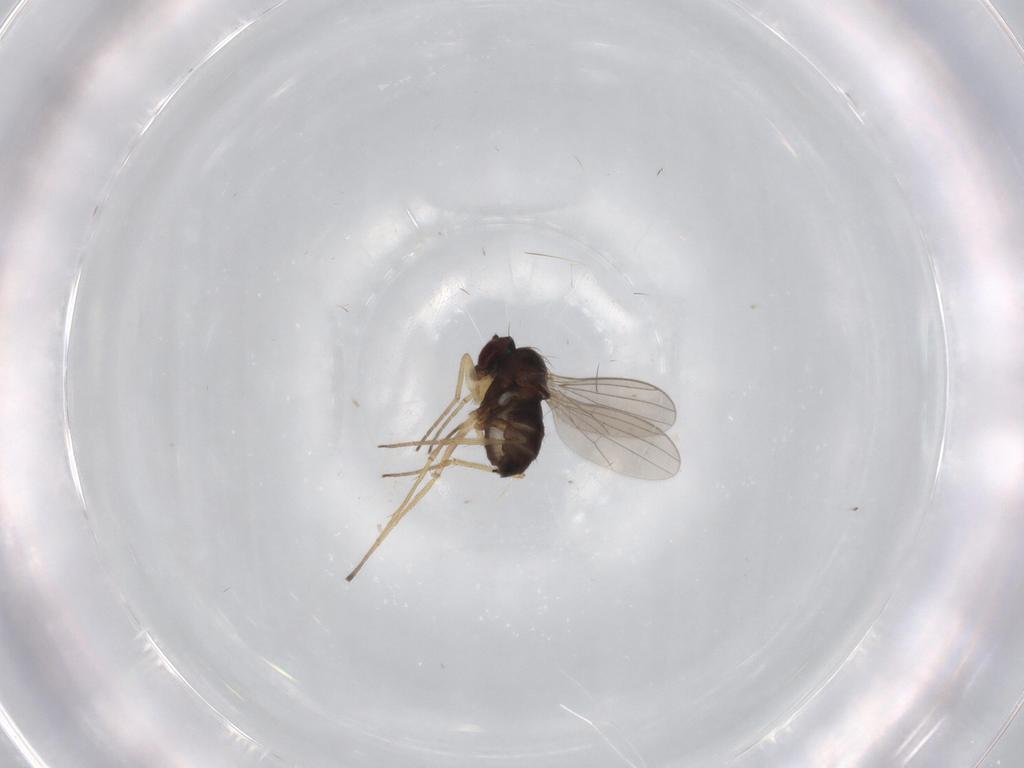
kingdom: Animalia
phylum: Arthropoda
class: Insecta
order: Diptera
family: Dolichopodidae
